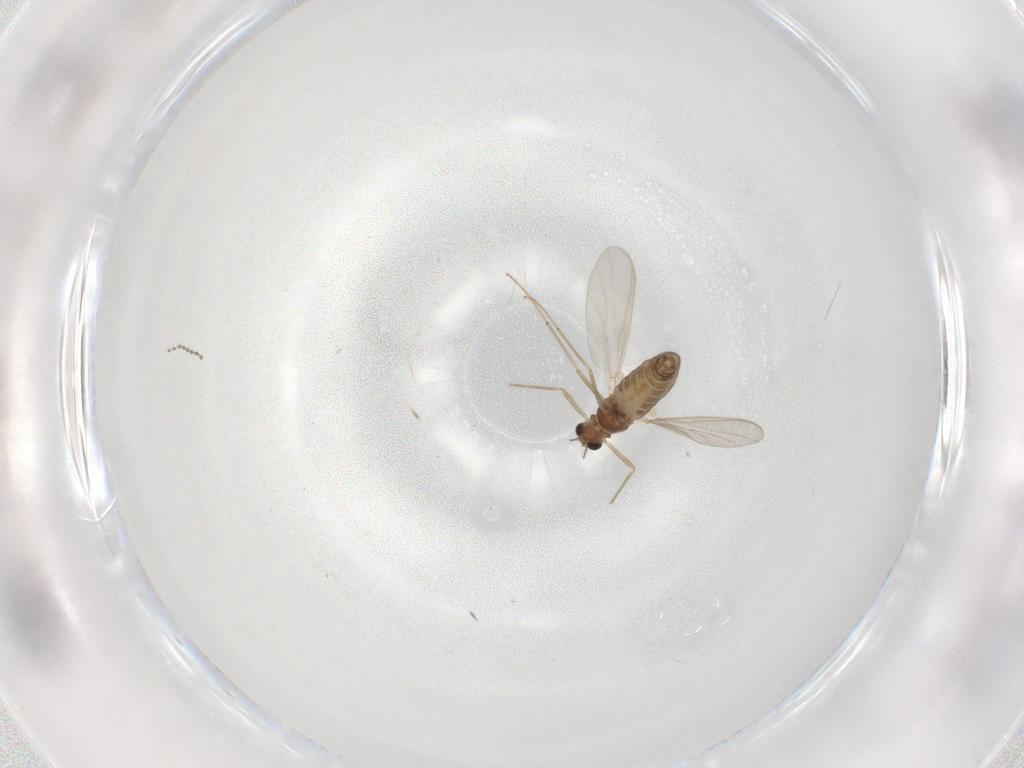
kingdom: Animalia
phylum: Arthropoda
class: Insecta
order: Diptera
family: Chironomidae
